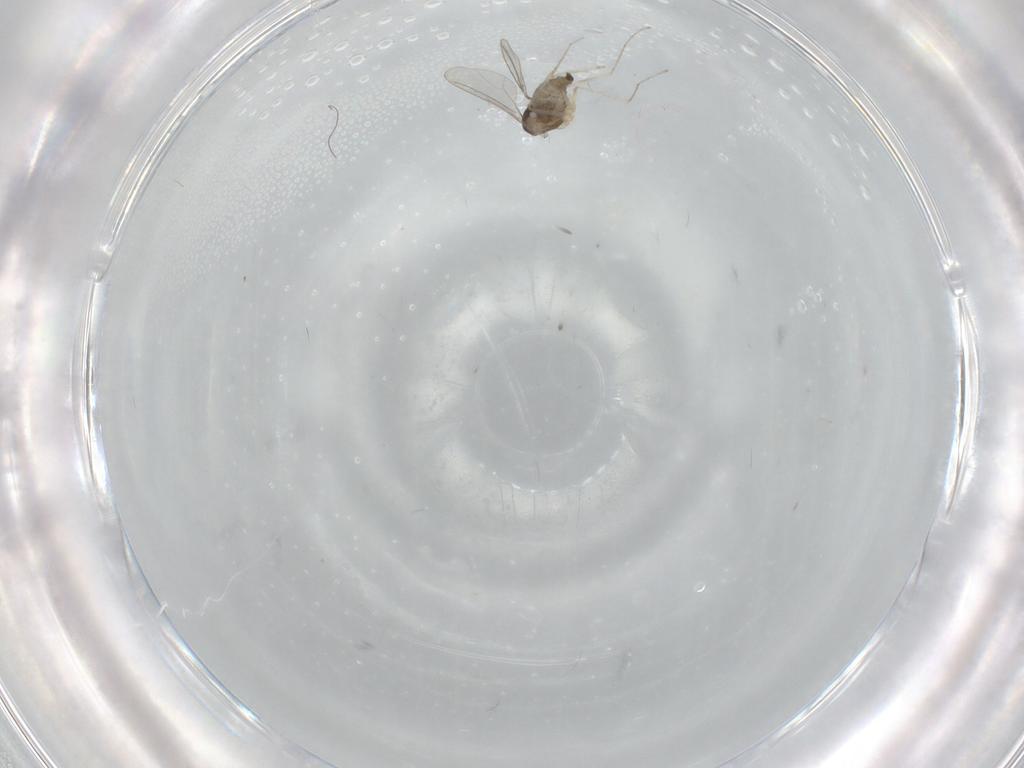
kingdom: Animalia
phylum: Arthropoda
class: Insecta
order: Diptera
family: Cecidomyiidae
